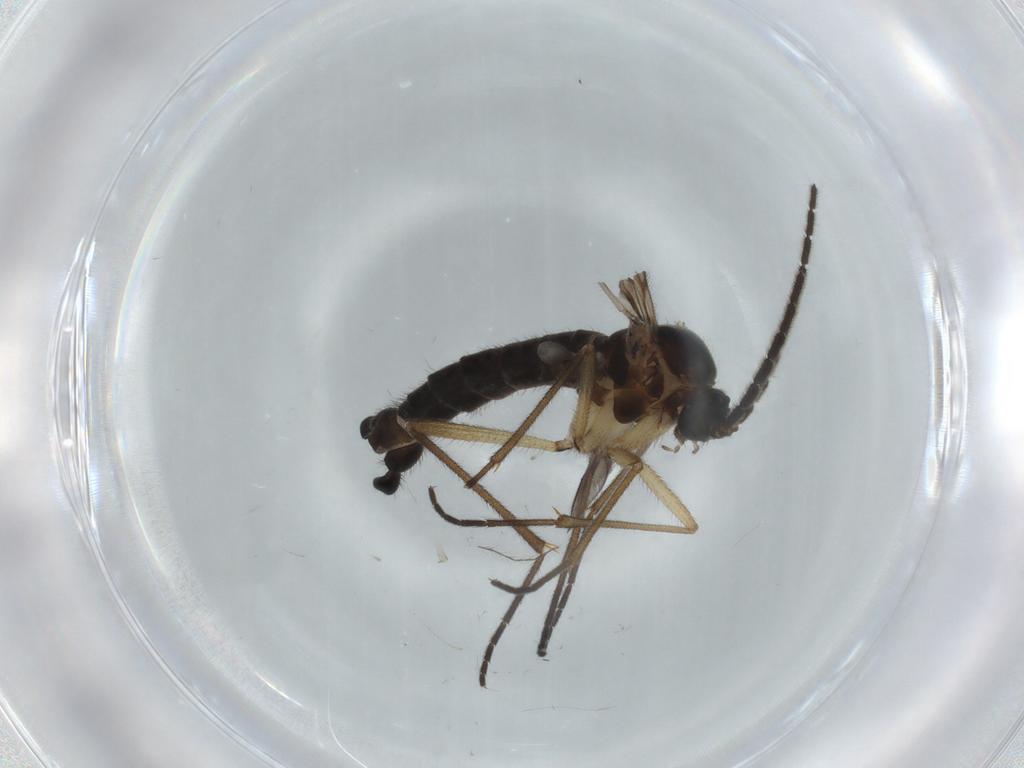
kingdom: Animalia
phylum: Arthropoda
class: Insecta
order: Diptera
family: Sciaridae
